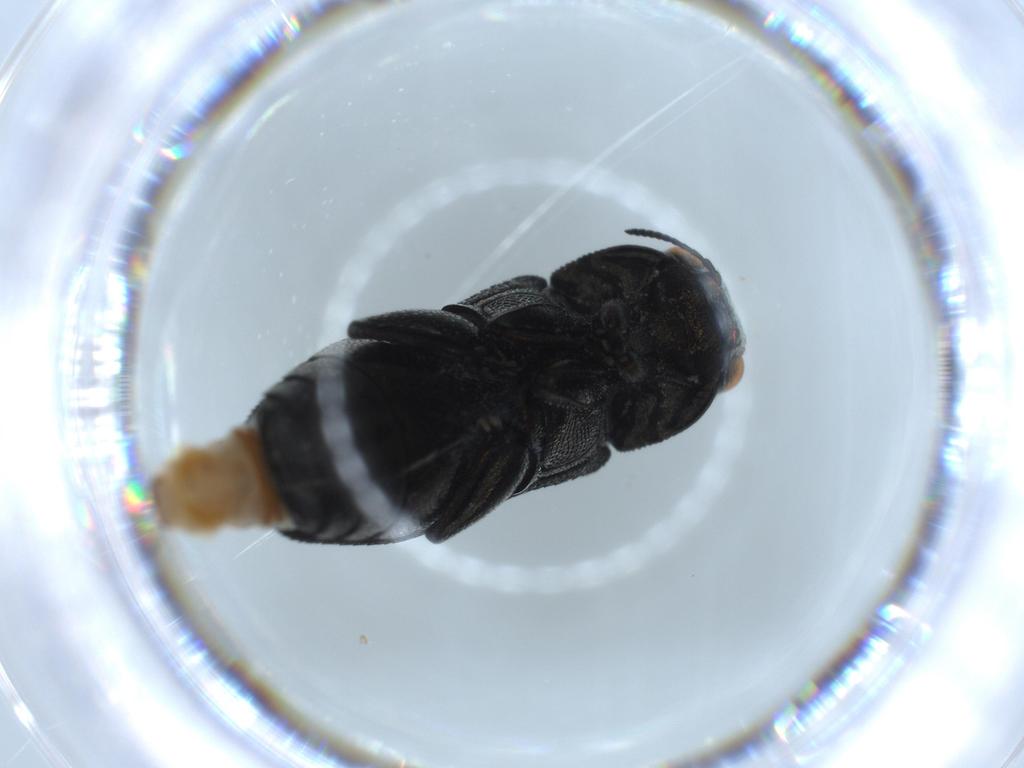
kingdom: Animalia
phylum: Arthropoda
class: Insecta
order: Coleoptera
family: Buprestidae
